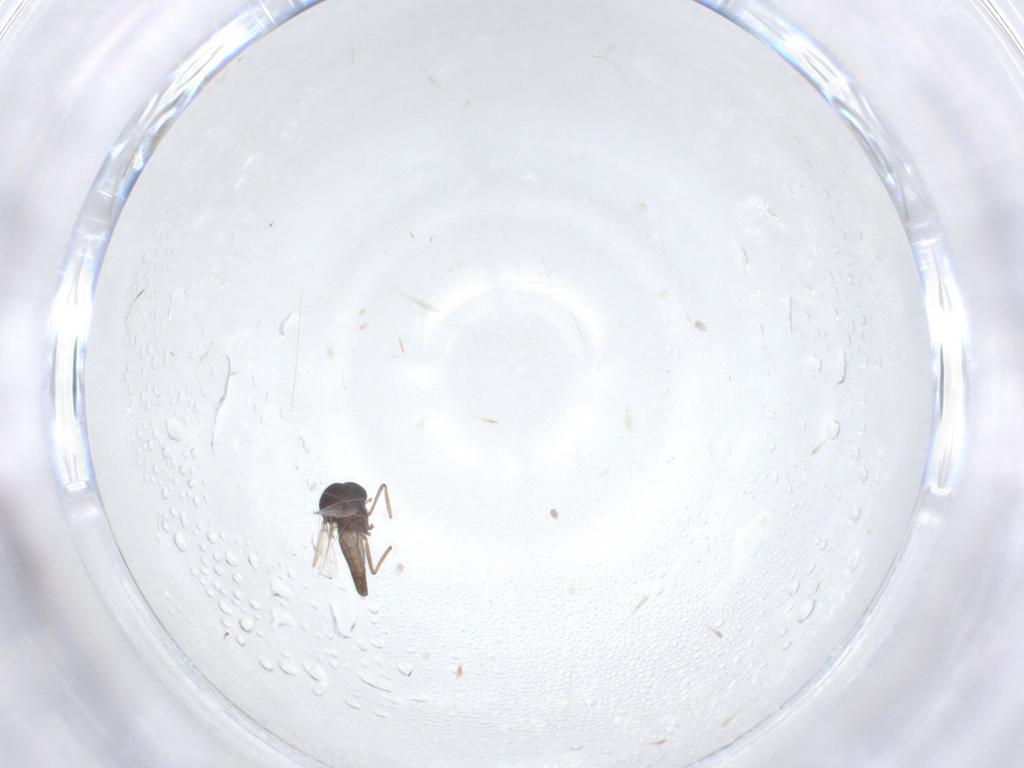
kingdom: Animalia
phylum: Arthropoda
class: Insecta
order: Diptera
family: Ceratopogonidae
